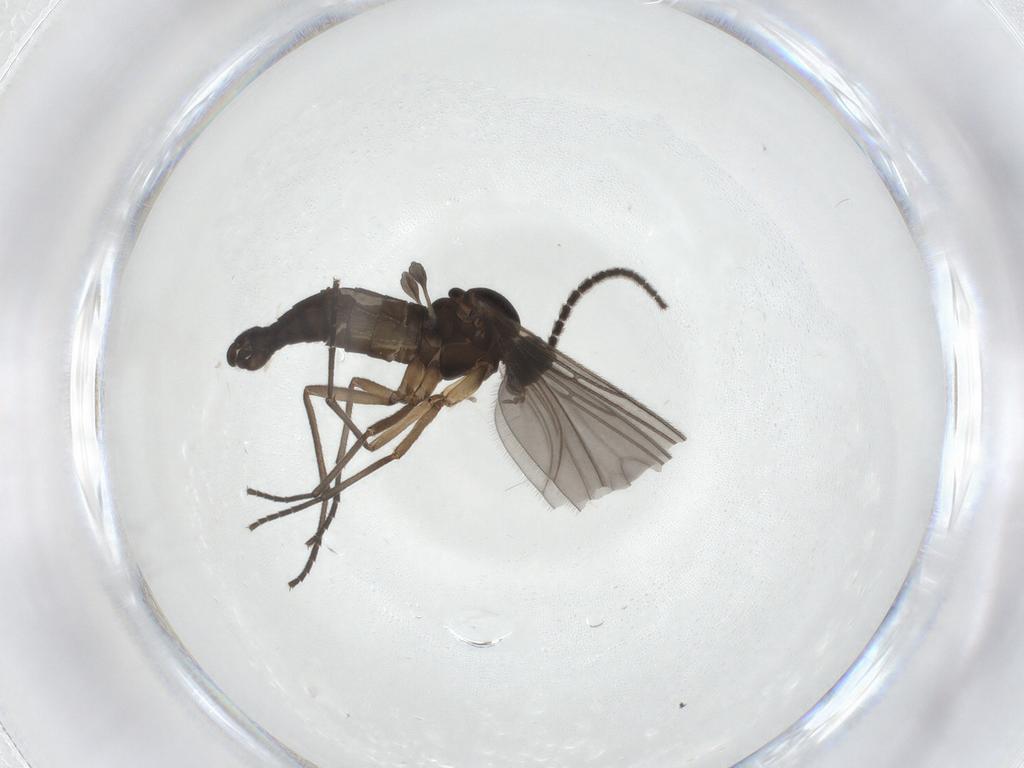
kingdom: Animalia
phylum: Arthropoda
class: Insecta
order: Diptera
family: Sciaridae
